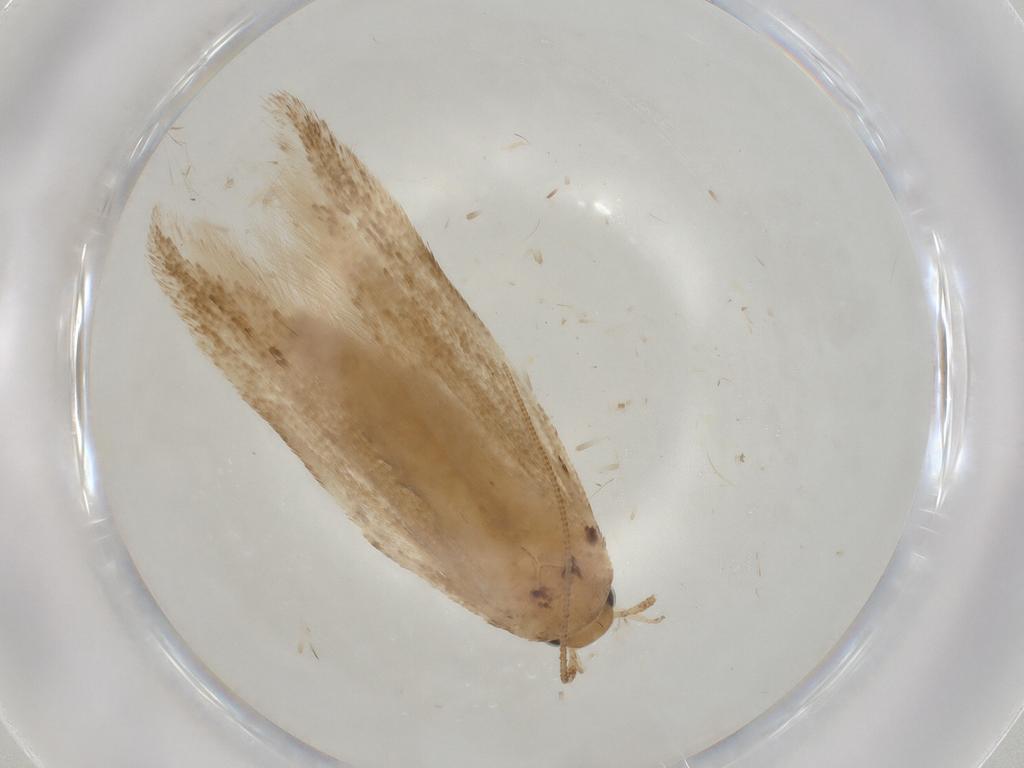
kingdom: Animalia
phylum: Arthropoda
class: Insecta
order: Lepidoptera
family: Gelechiidae
